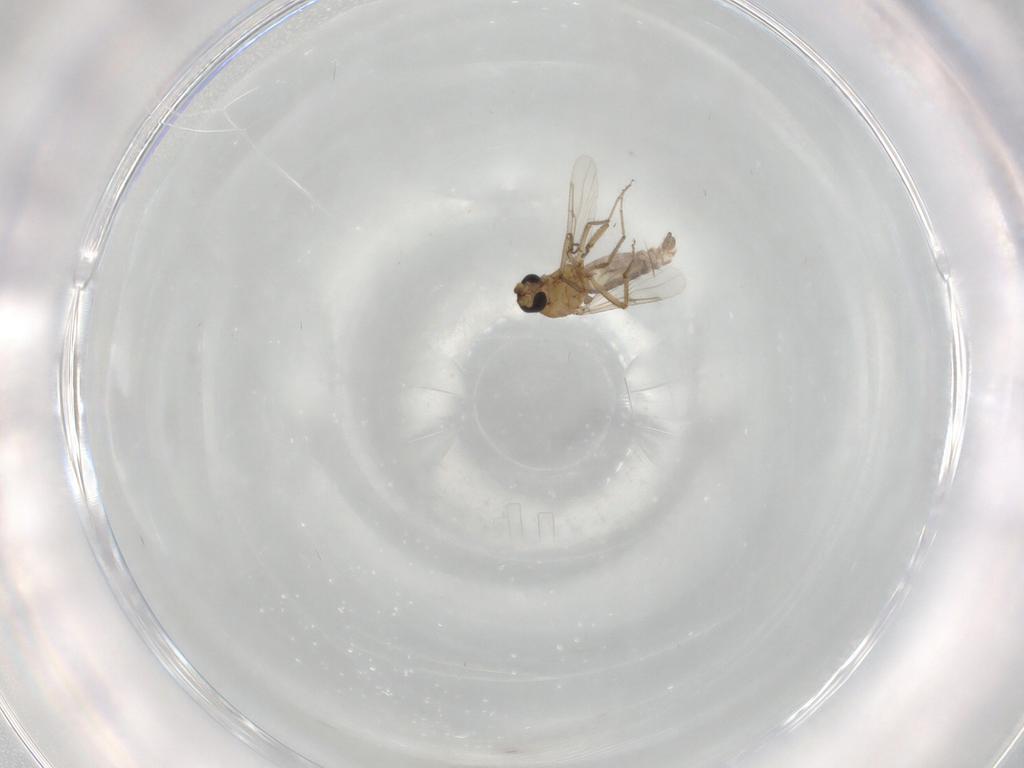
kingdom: Animalia
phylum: Arthropoda
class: Insecta
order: Diptera
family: Ceratopogonidae
